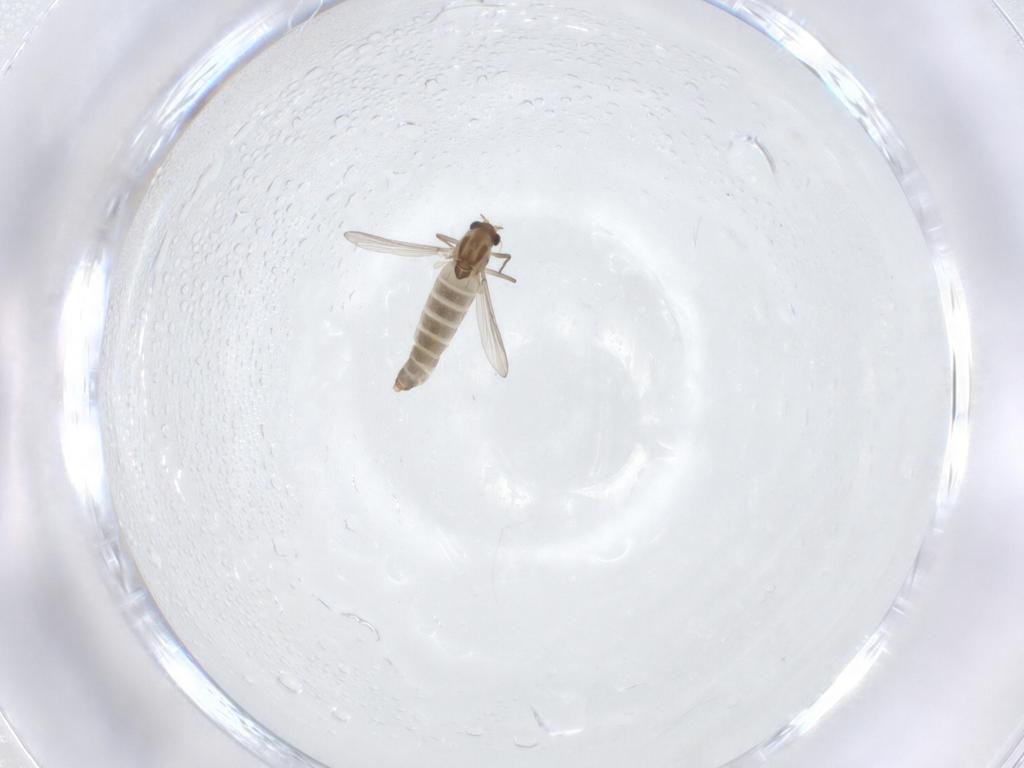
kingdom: Animalia
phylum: Arthropoda
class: Insecta
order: Diptera
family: Chironomidae
